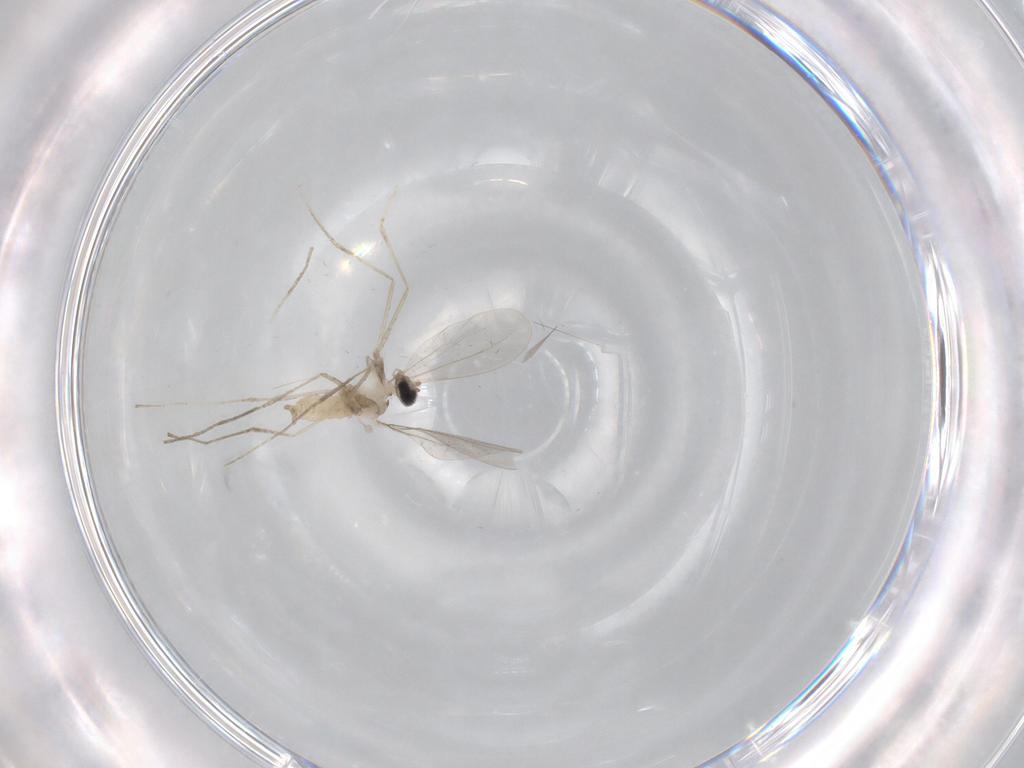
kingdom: Animalia
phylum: Arthropoda
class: Insecta
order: Diptera
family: Cecidomyiidae
